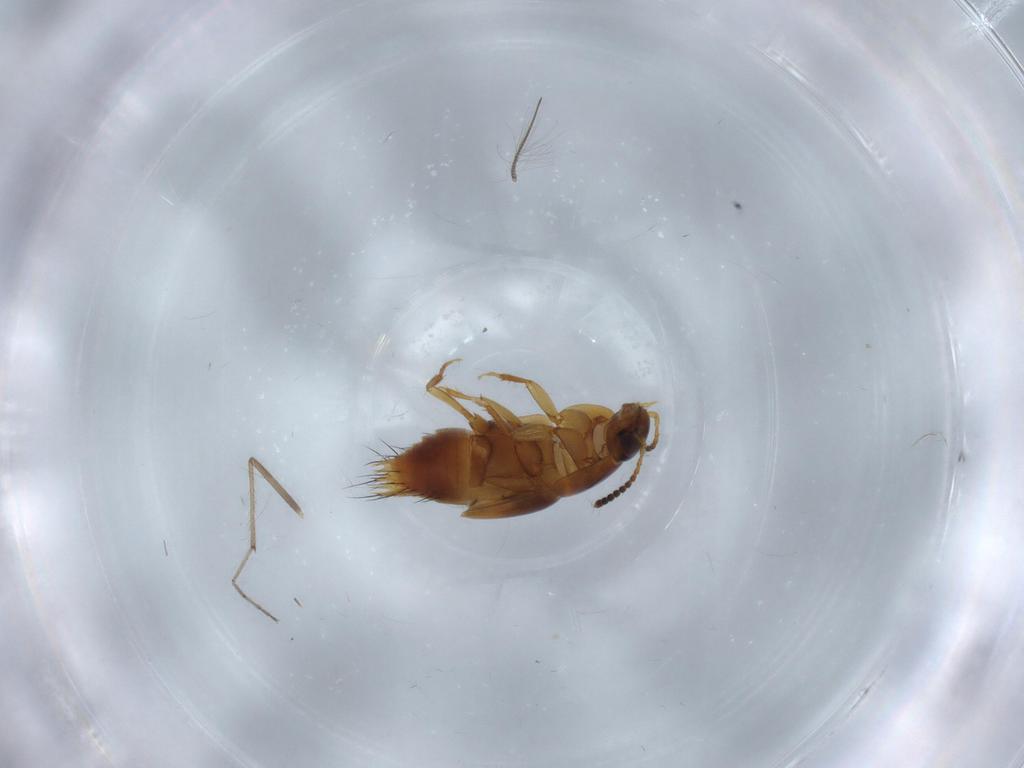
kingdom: Animalia
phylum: Arthropoda
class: Insecta
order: Coleoptera
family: Staphylinidae
